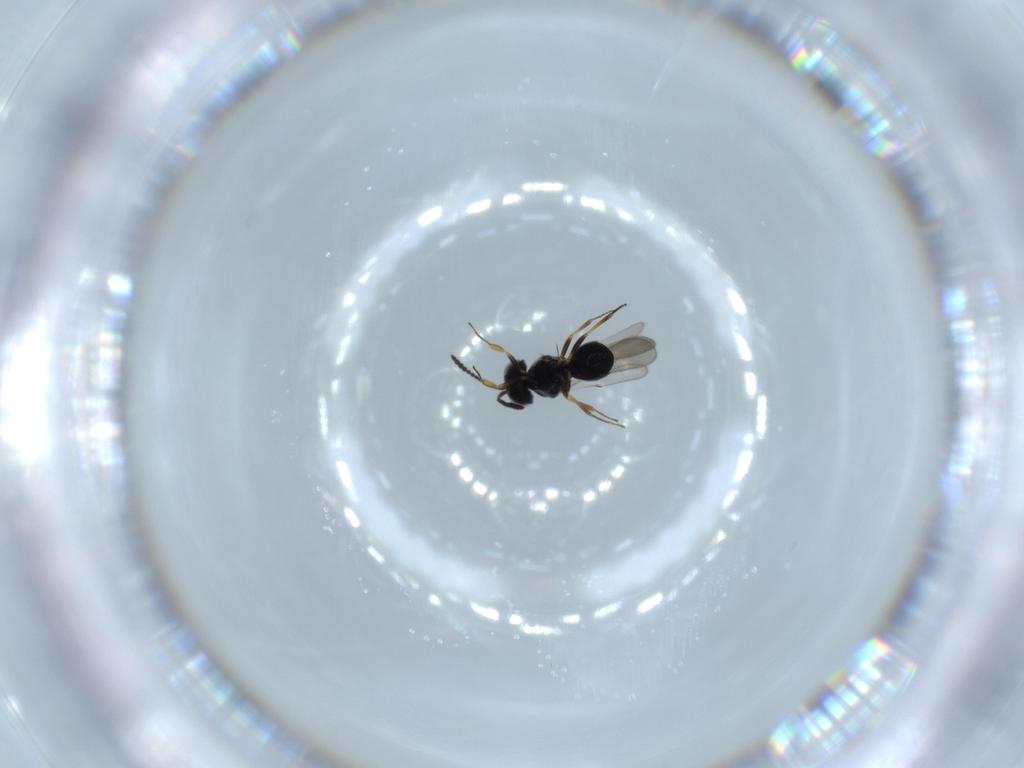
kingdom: Animalia
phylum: Arthropoda
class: Insecta
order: Hymenoptera
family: Scelionidae
